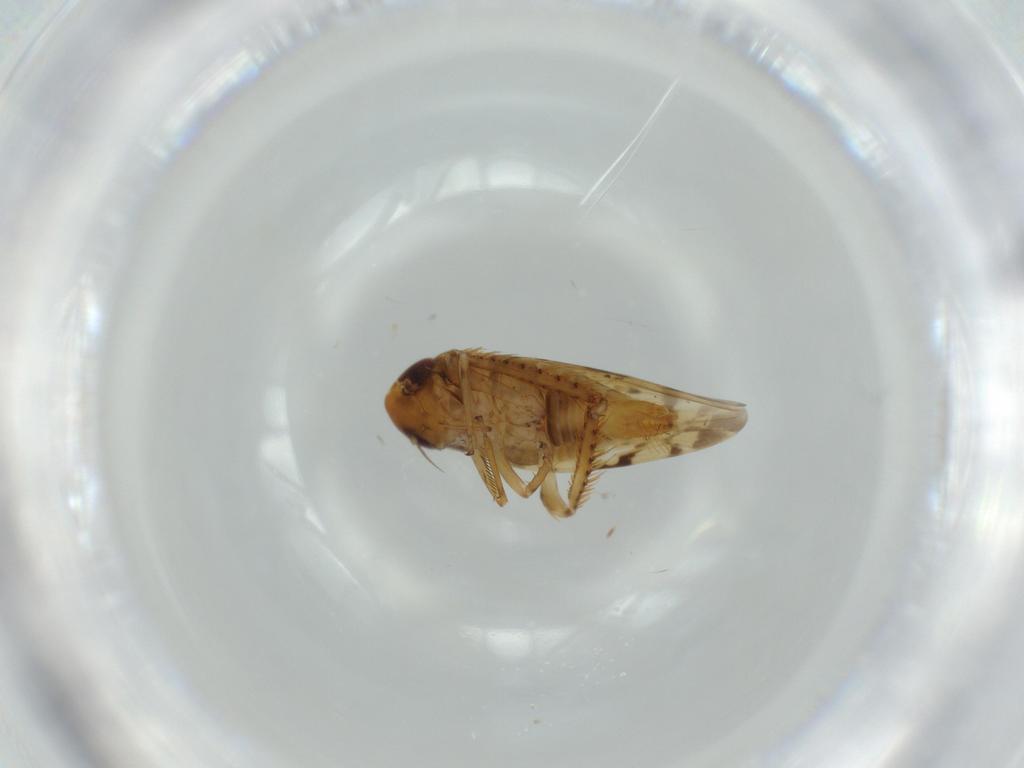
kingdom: Animalia
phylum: Arthropoda
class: Insecta
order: Hemiptera
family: Cicadellidae
